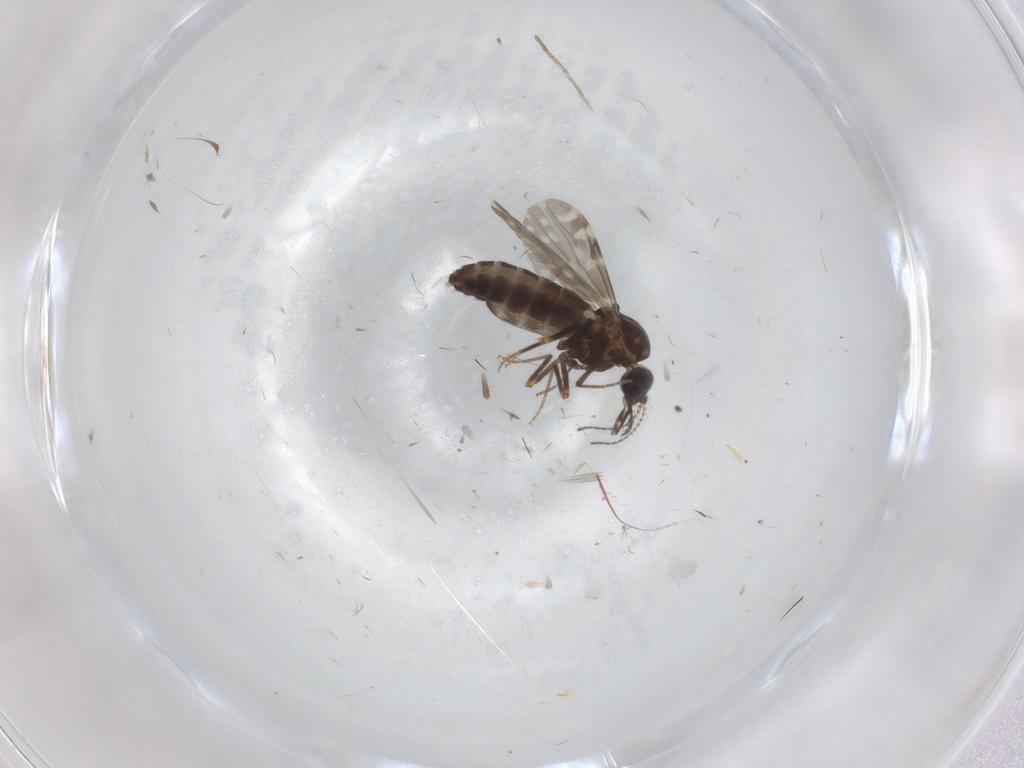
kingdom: Animalia
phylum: Arthropoda
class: Insecta
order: Diptera
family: Ceratopogonidae
